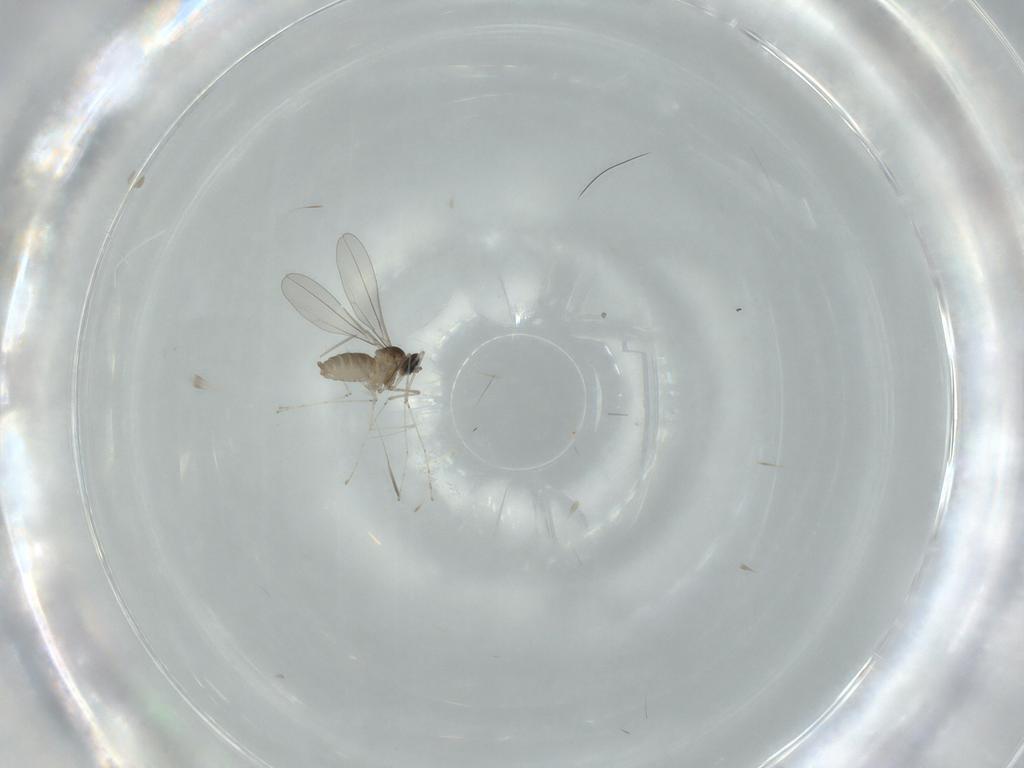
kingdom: Animalia
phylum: Arthropoda
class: Insecta
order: Diptera
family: Cecidomyiidae
